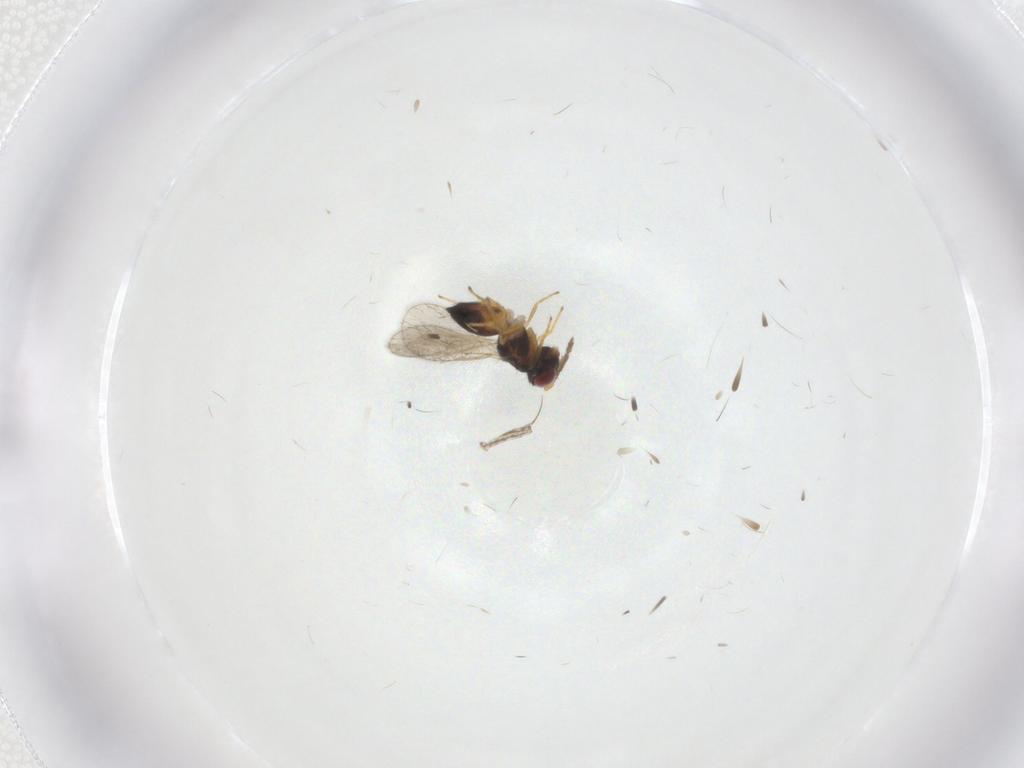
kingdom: Animalia
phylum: Arthropoda
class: Insecta
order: Hymenoptera
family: Eulophidae
